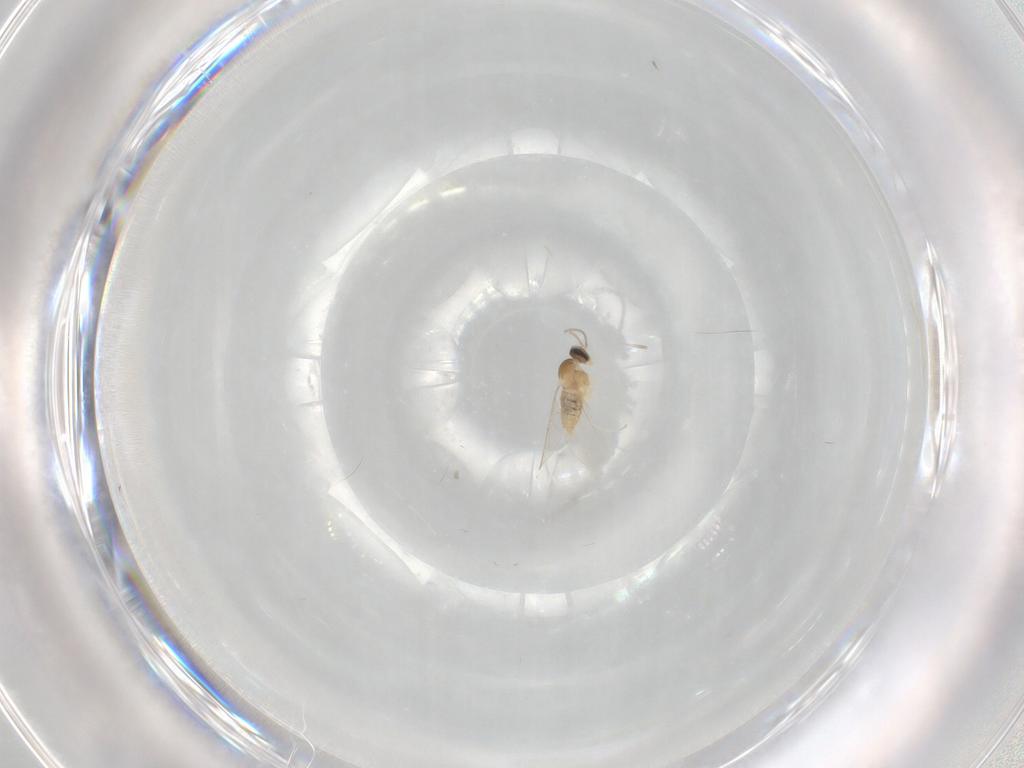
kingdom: Animalia
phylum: Arthropoda
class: Insecta
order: Diptera
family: Cecidomyiidae
